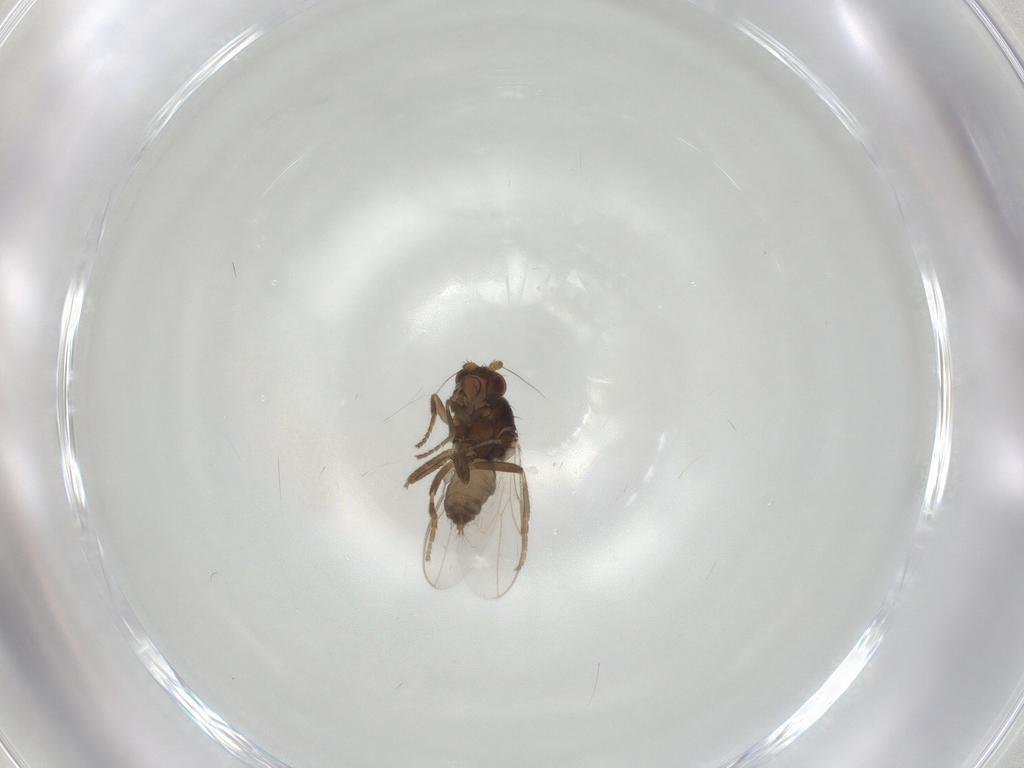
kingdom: Animalia
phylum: Arthropoda
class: Insecta
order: Diptera
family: Sphaeroceridae
